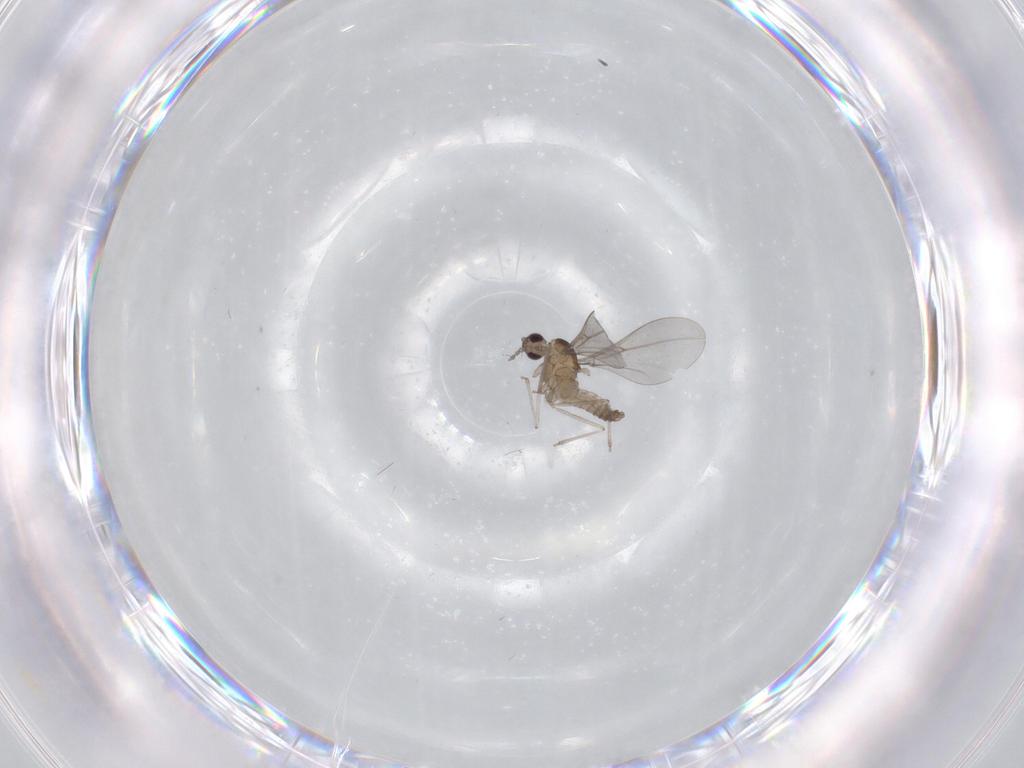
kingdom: Animalia
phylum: Arthropoda
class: Insecta
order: Diptera
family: Cecidomyiidae
